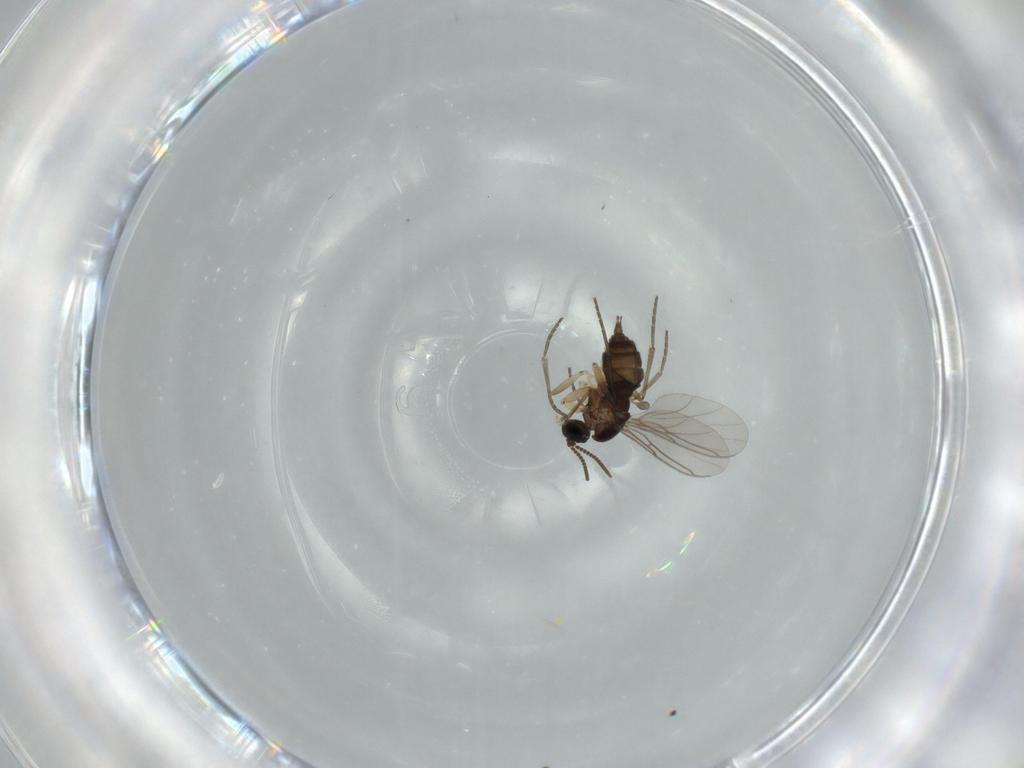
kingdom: Animalia
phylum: Arthropoda
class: Insecta
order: Diptera
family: Sciaridae
